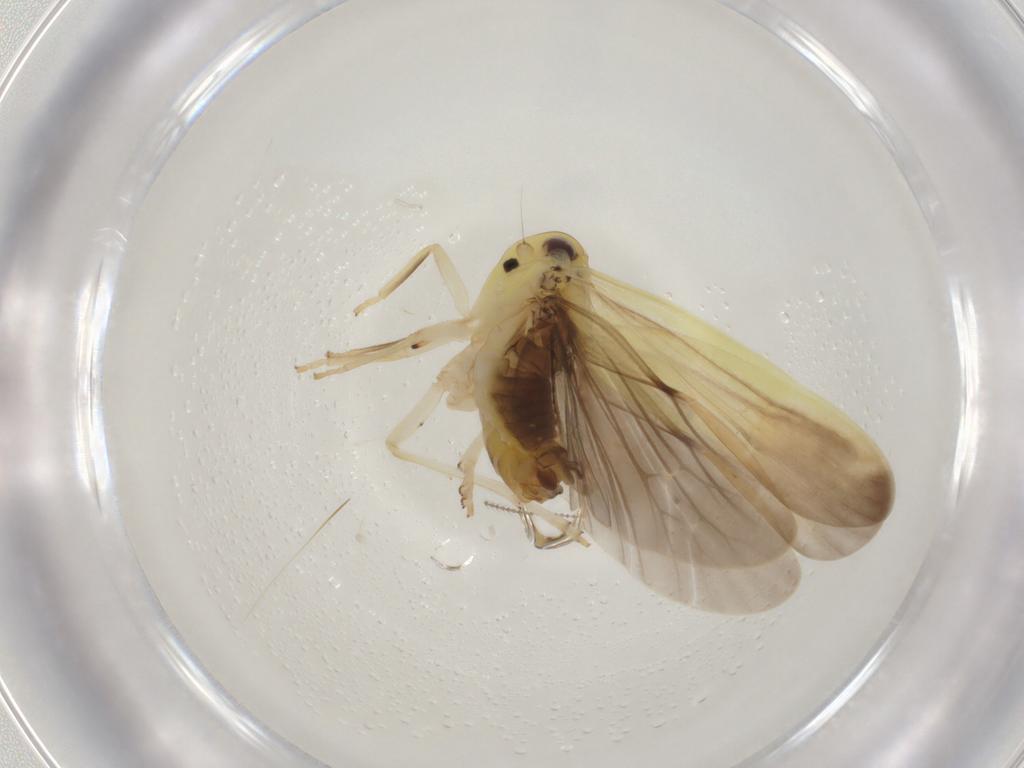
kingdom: Animalia
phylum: Arthropoda
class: Insecta
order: Hemiptera
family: Achilidae
